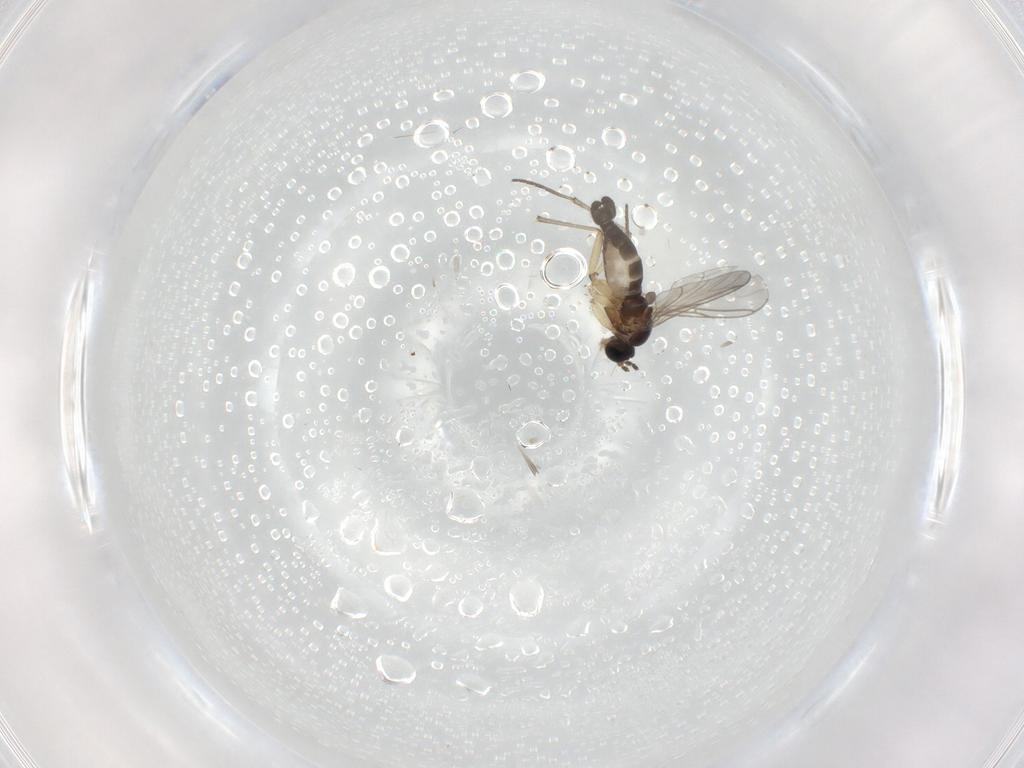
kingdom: Animalia
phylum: Arthropoda
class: Insecta
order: Diptera
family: Sciaridae
